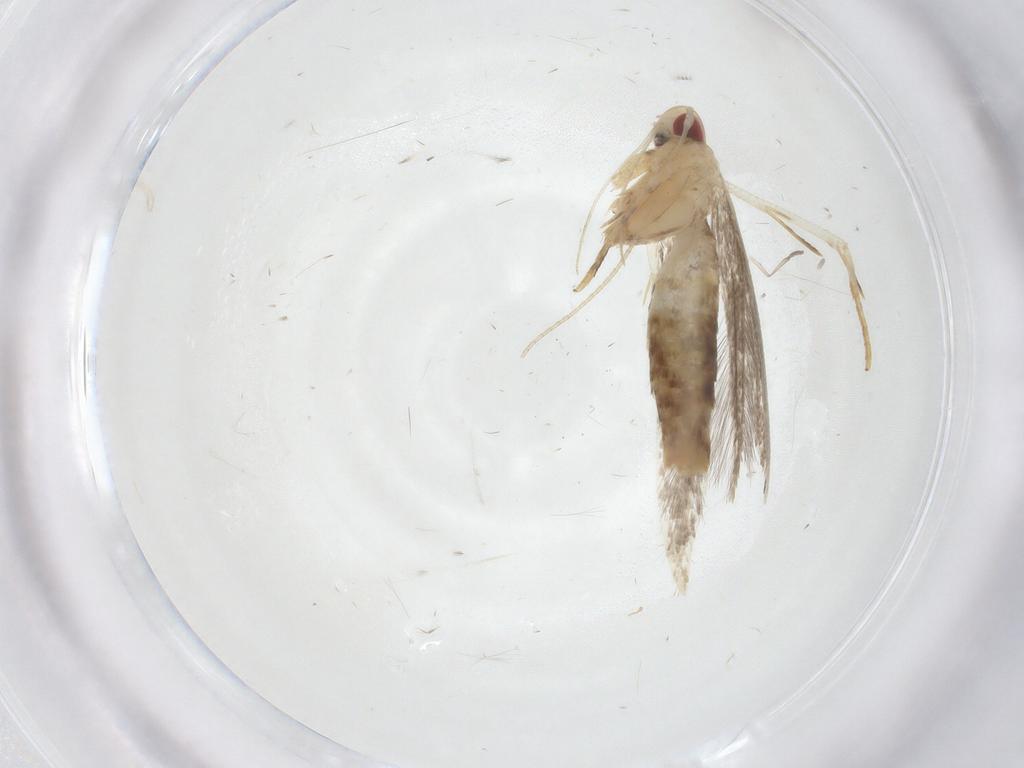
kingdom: Animalia
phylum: Arthropoda
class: Insecta
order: Lepidoptera
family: Cosmopterigidae
